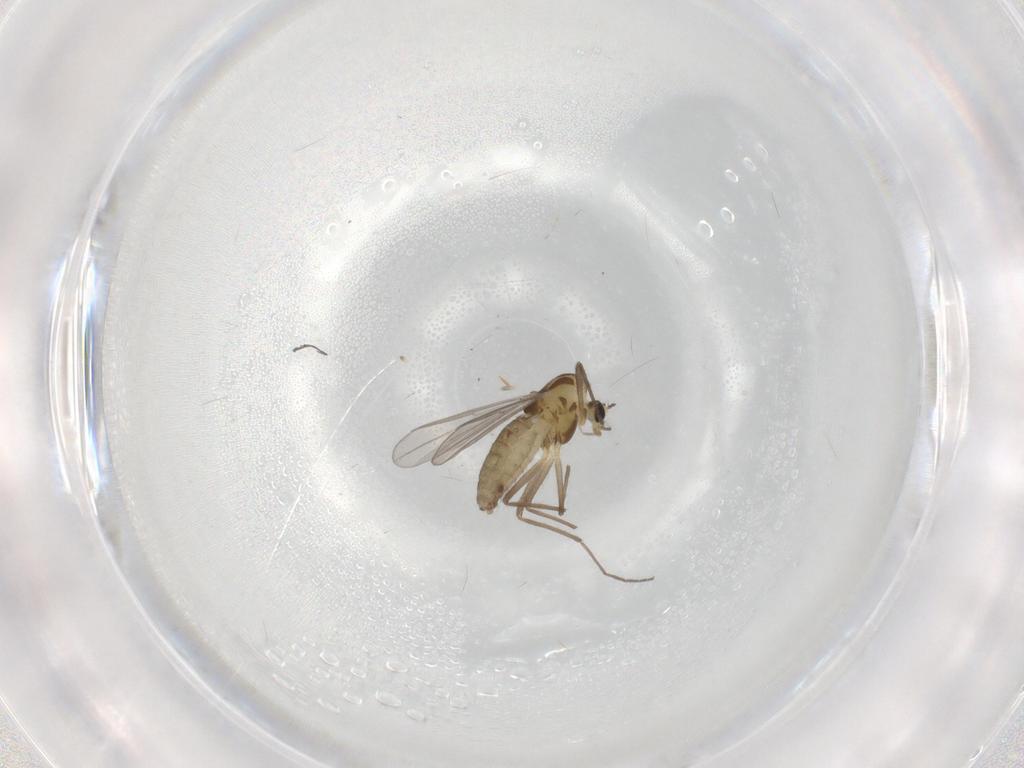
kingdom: Animalia
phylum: Arthropoda
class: Insecta
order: Diptera
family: Chironomidae
